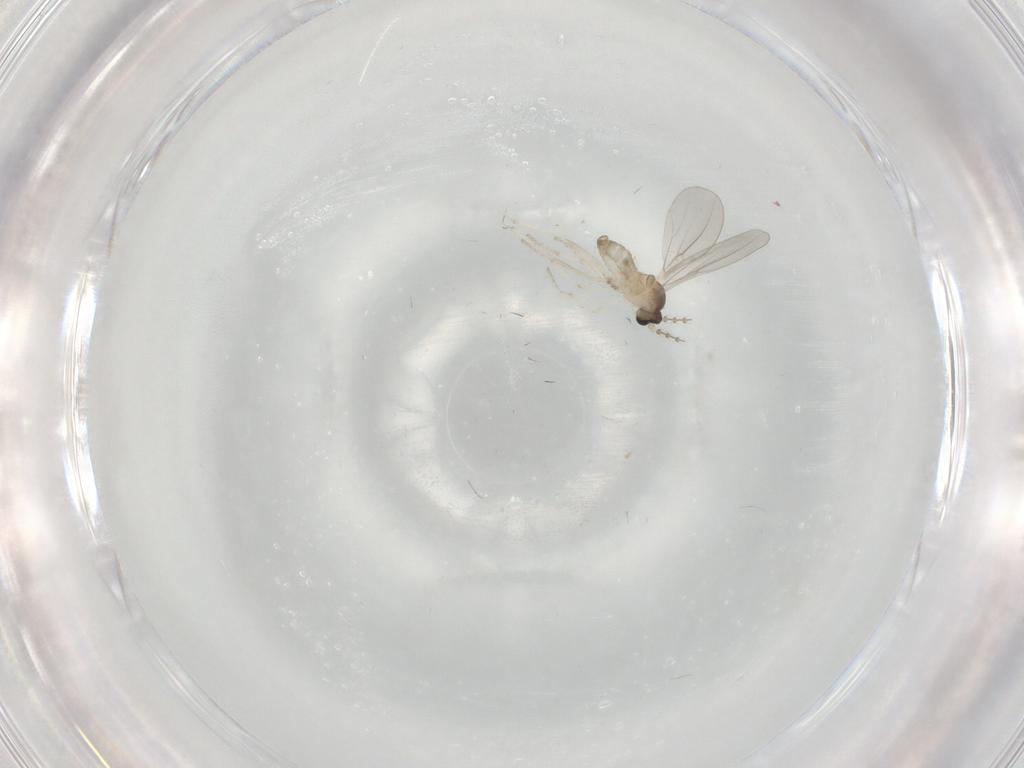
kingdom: Animalia
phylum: Arthropoda
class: Insecta
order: Diptera
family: Cecidomyiidae
